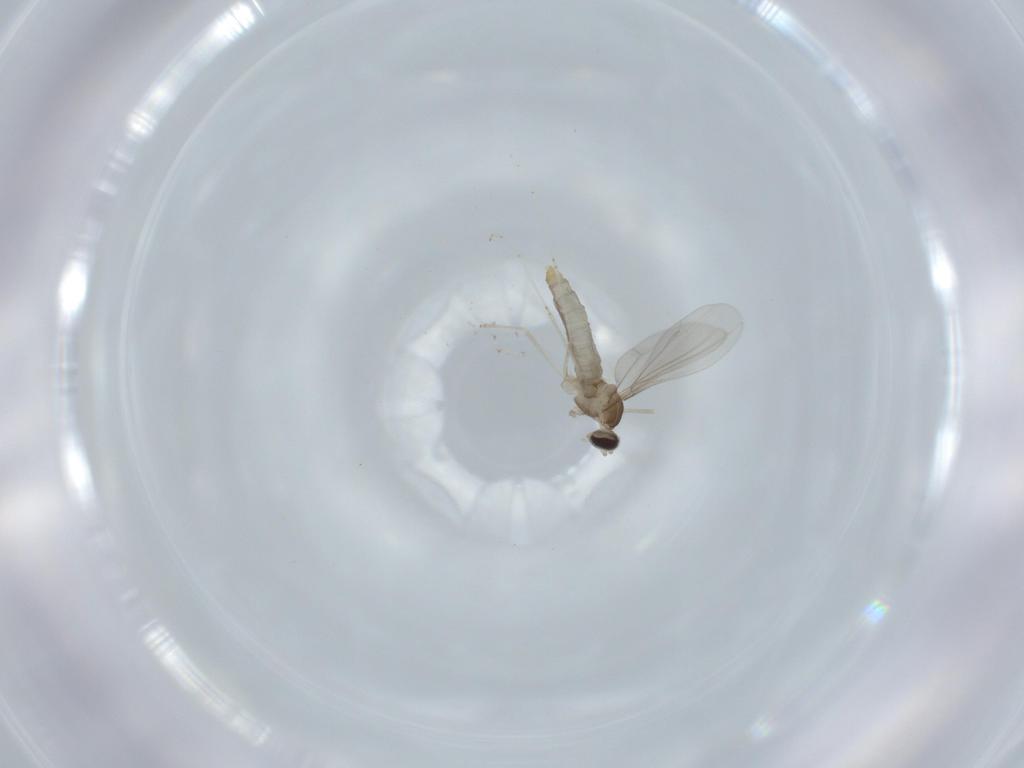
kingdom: Animalia
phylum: Arthropoda
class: Insecta
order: Diptera
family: Cecidomyiidae
